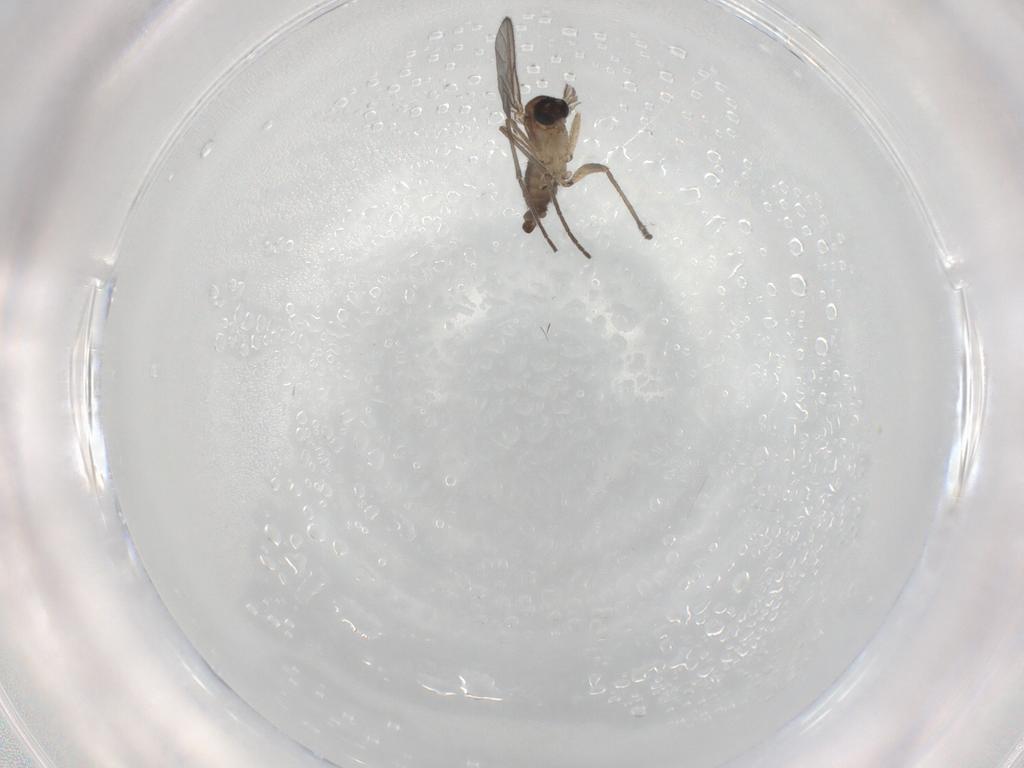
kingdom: Animalia
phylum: Arthropoda
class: Insecta
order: Diptera
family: Sciaridae
